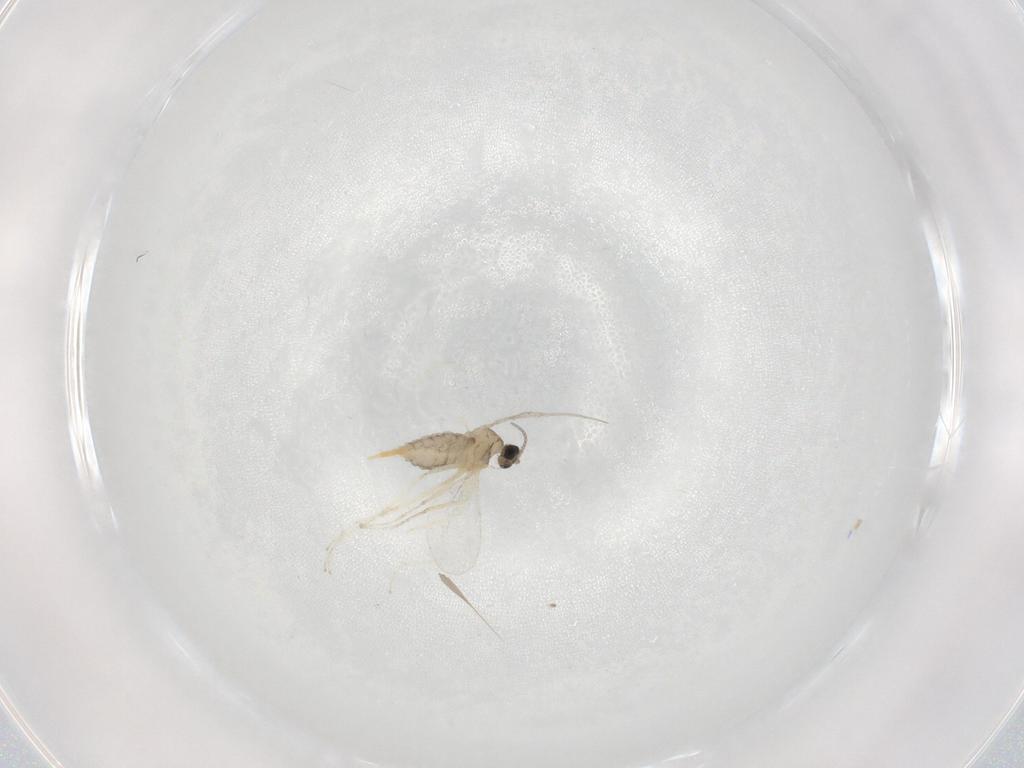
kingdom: Animalia
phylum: Arthropoda
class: Insecta
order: Diptera
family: Cecidomyiidae
